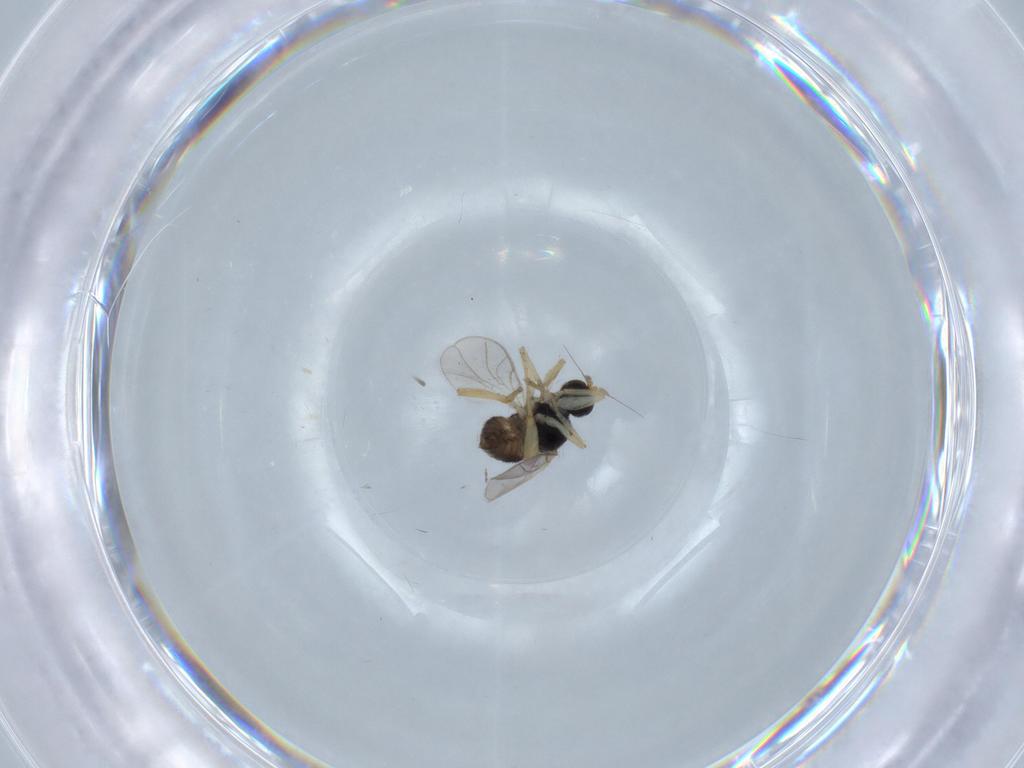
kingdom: Animalia
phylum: Arthropoda
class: Insecta
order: Diptera
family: Hybotidae
